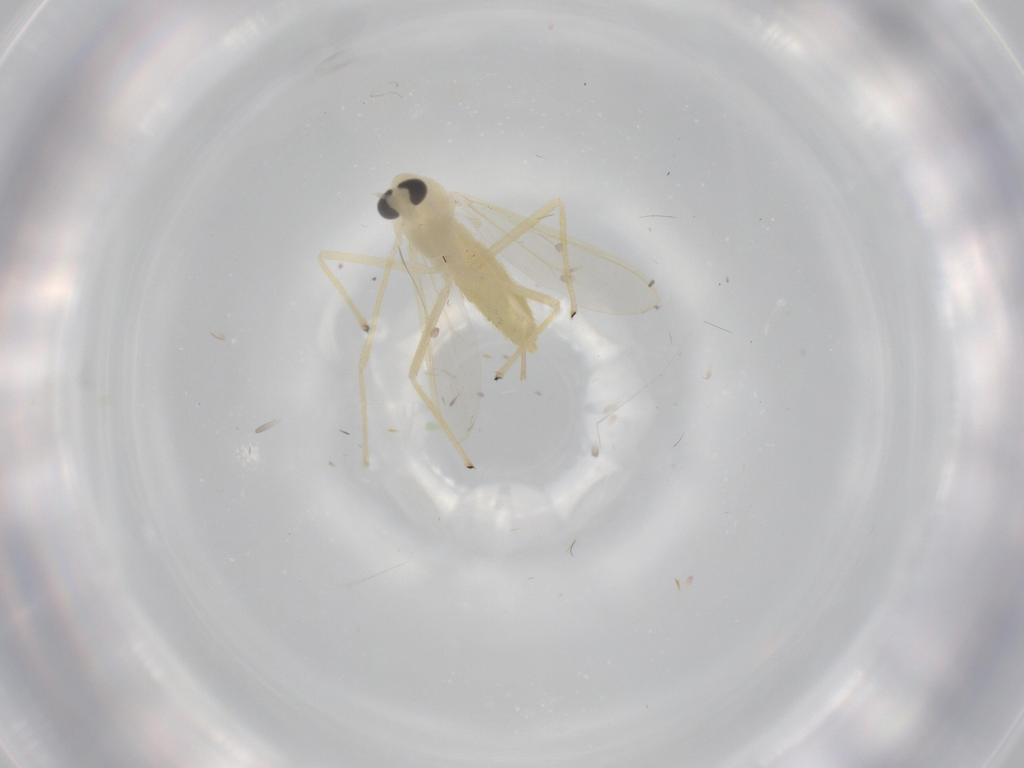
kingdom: Animalia
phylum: Arthropoda
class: Insecta
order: Diptera
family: Chironomidae
